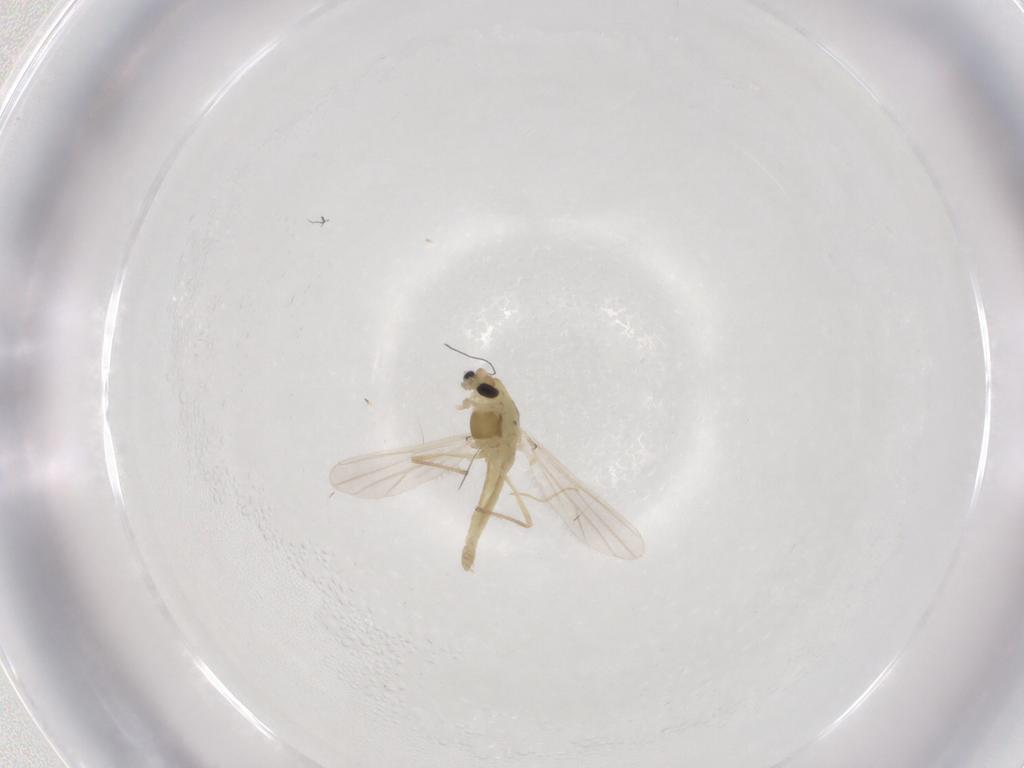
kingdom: Animalia
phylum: Arthropoda
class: Insecta
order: Diptera
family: Chironomidae
